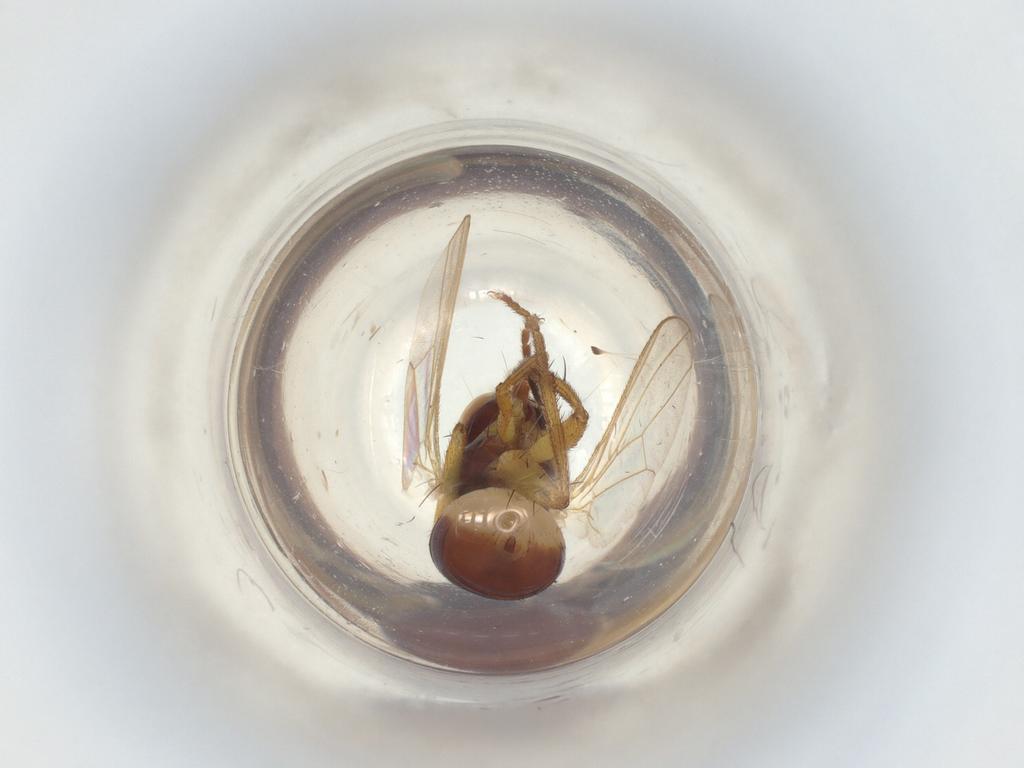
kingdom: Animalia
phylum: Arthropoda
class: Insecta
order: Diptera
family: Muscidae
